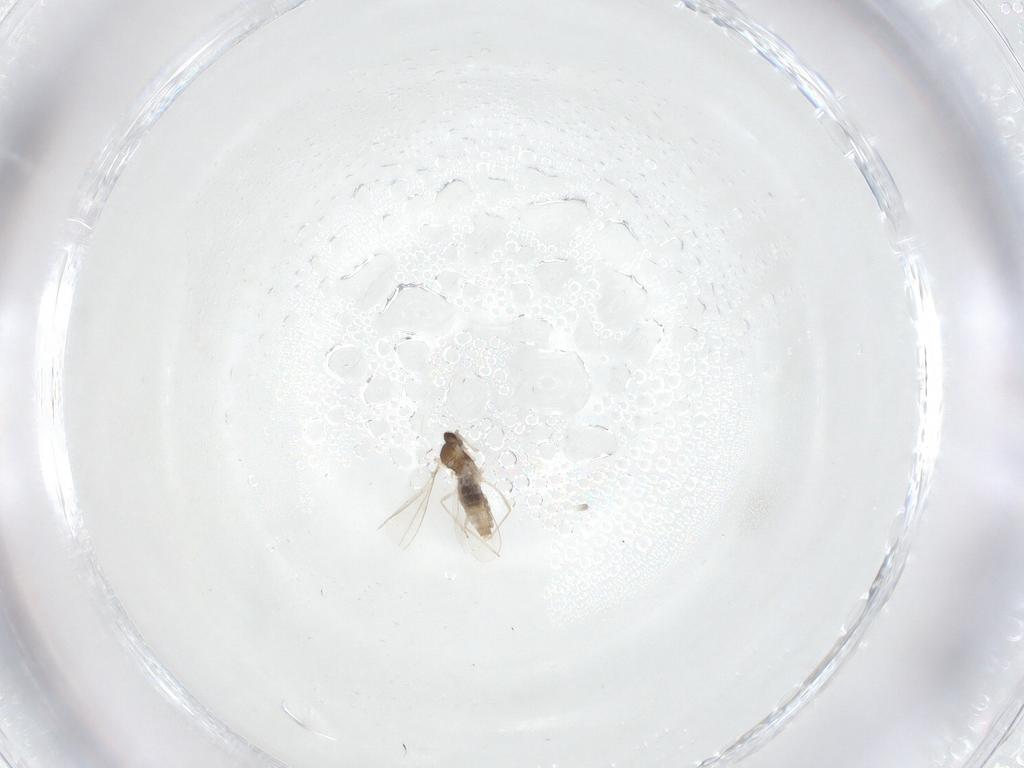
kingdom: Animalia
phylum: Arthropoda
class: Insecta
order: Diptera
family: Cecidomyiidae
